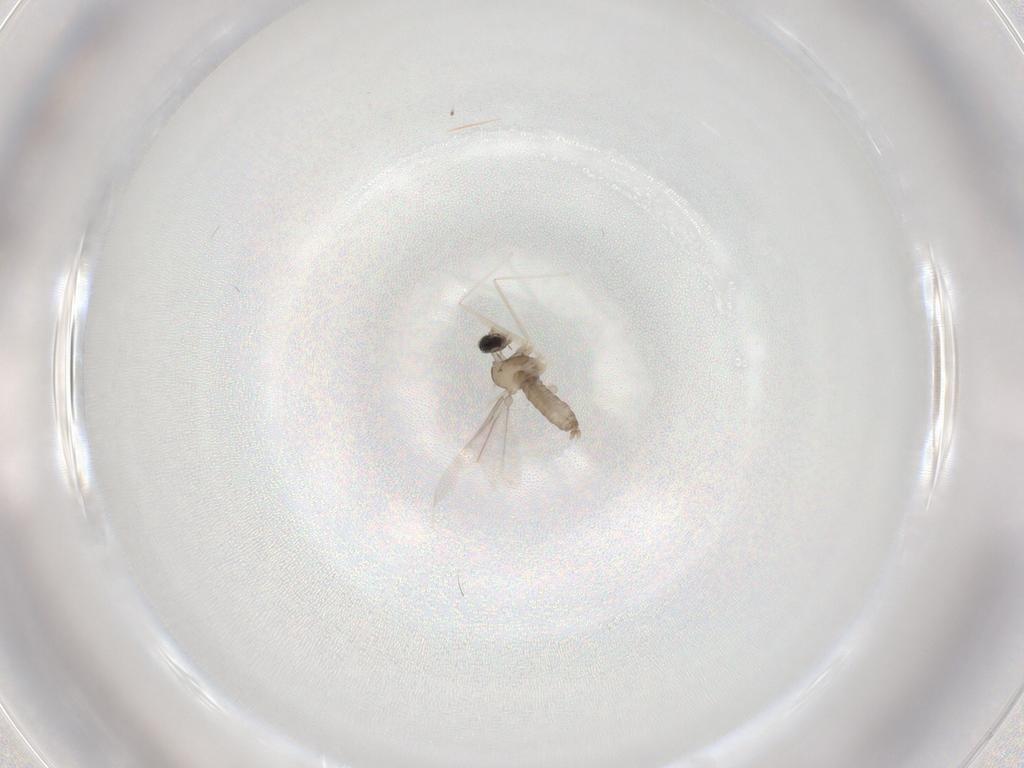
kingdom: Animalia
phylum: Arthropoda
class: Insecta
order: Diptera
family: Cecidomyiidae
